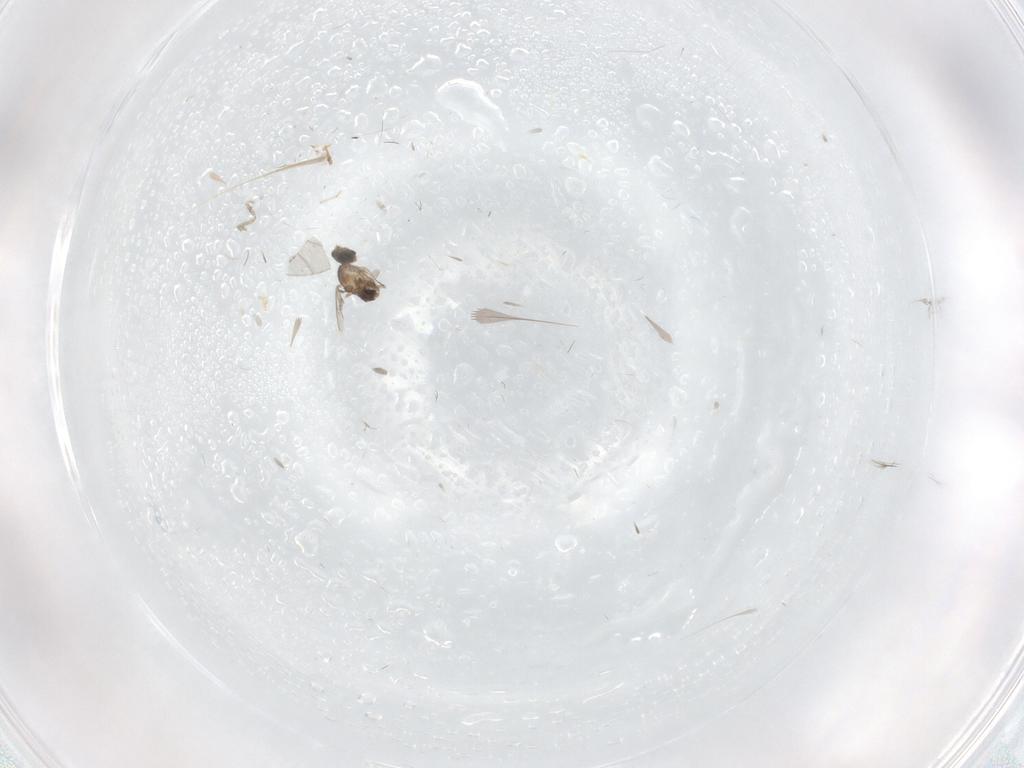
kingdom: Animalia
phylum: Arthropoda
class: Insecta
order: Diptera
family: Cecidomyiidae
